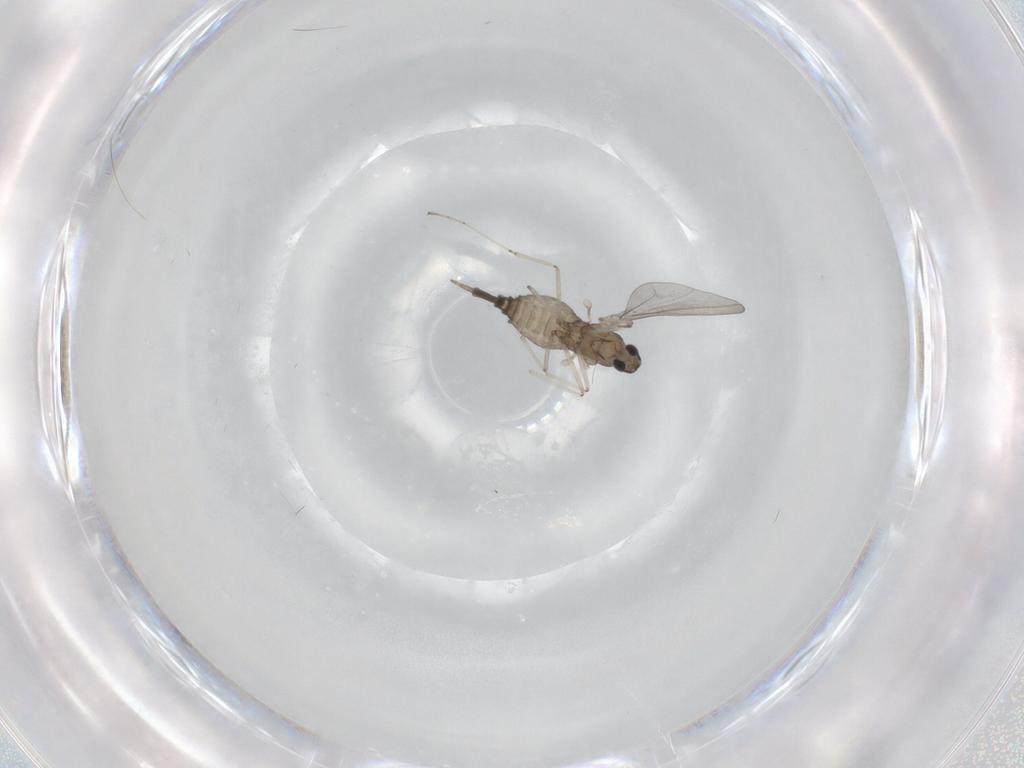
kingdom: Animalia
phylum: Arthropoda
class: Insecta
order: Diptera
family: Cecidomyiidae
